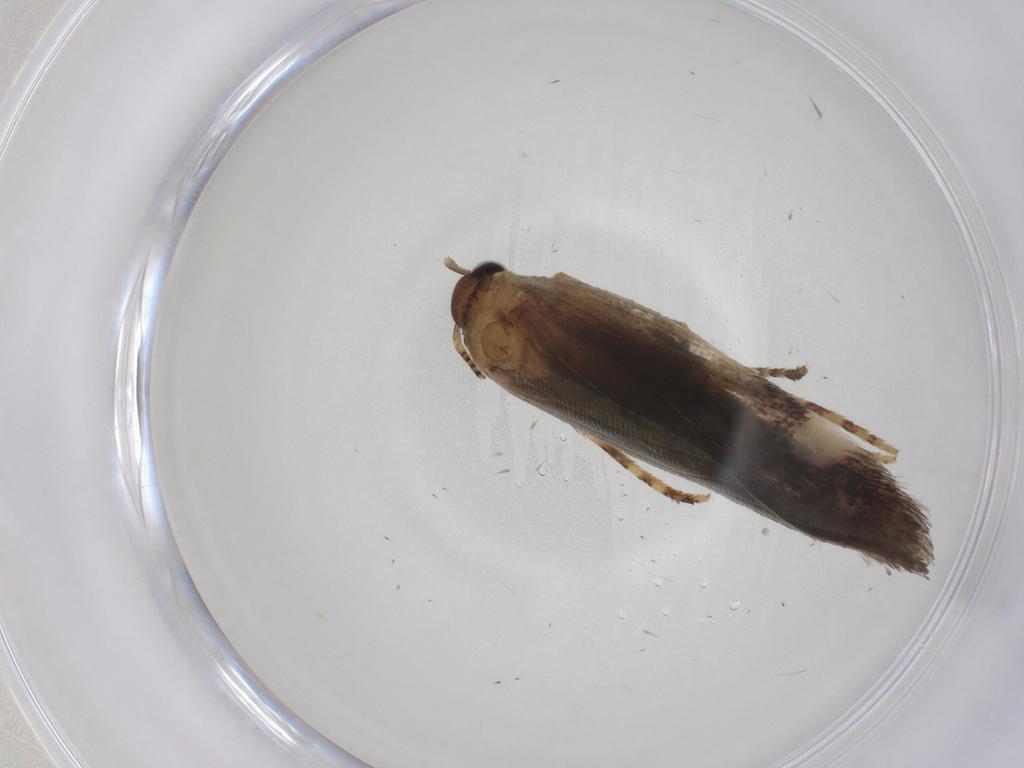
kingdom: Animalia
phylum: Arthropoda
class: Insecta
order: Lepidoptera
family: Gelechiidae
